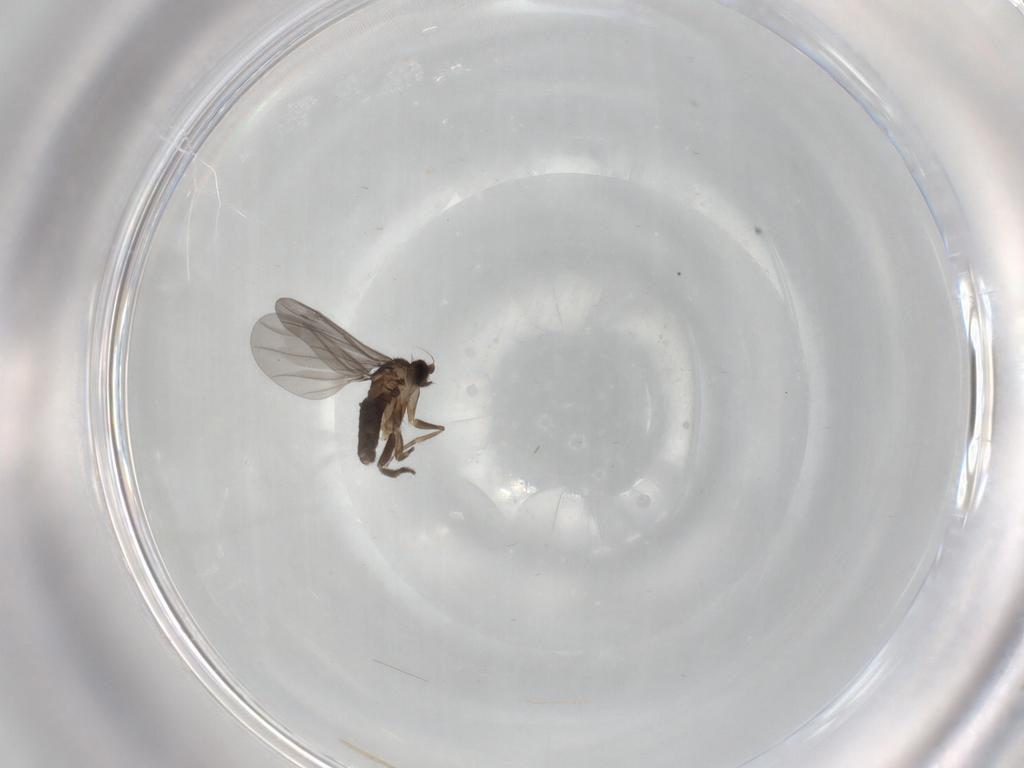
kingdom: Animalia
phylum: Arthropoda
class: Insecta
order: Diptera
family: Phoridae
